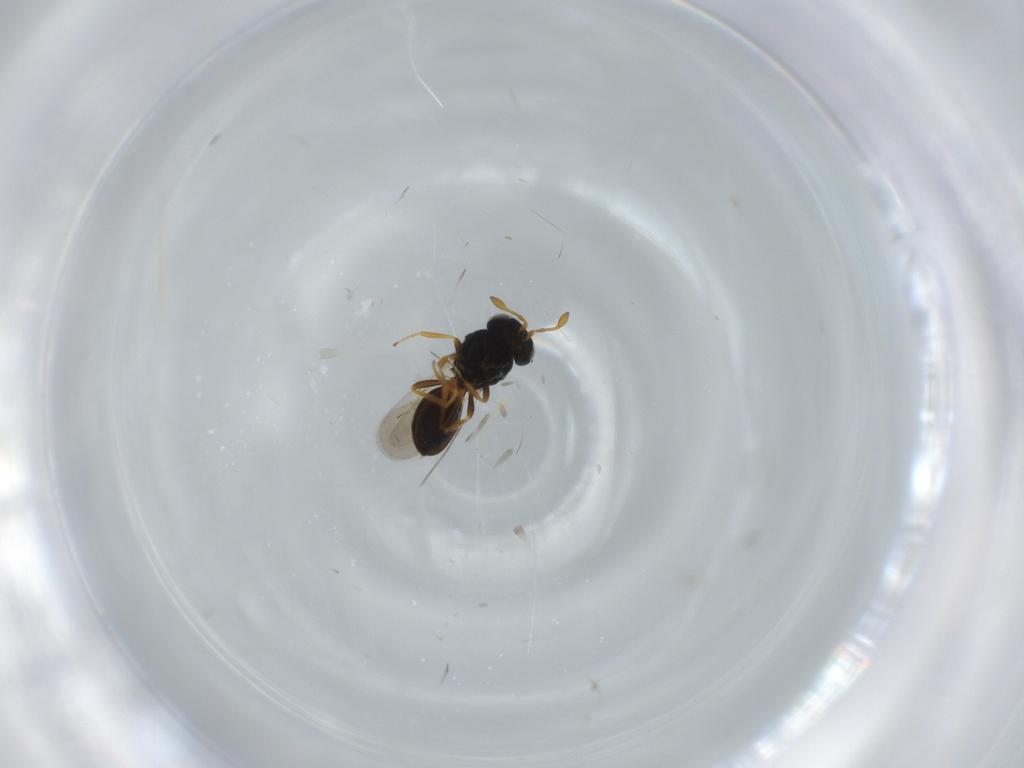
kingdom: Animalia
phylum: Arthropoda
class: Insecta
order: Hymenoptera
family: Scelionidae
